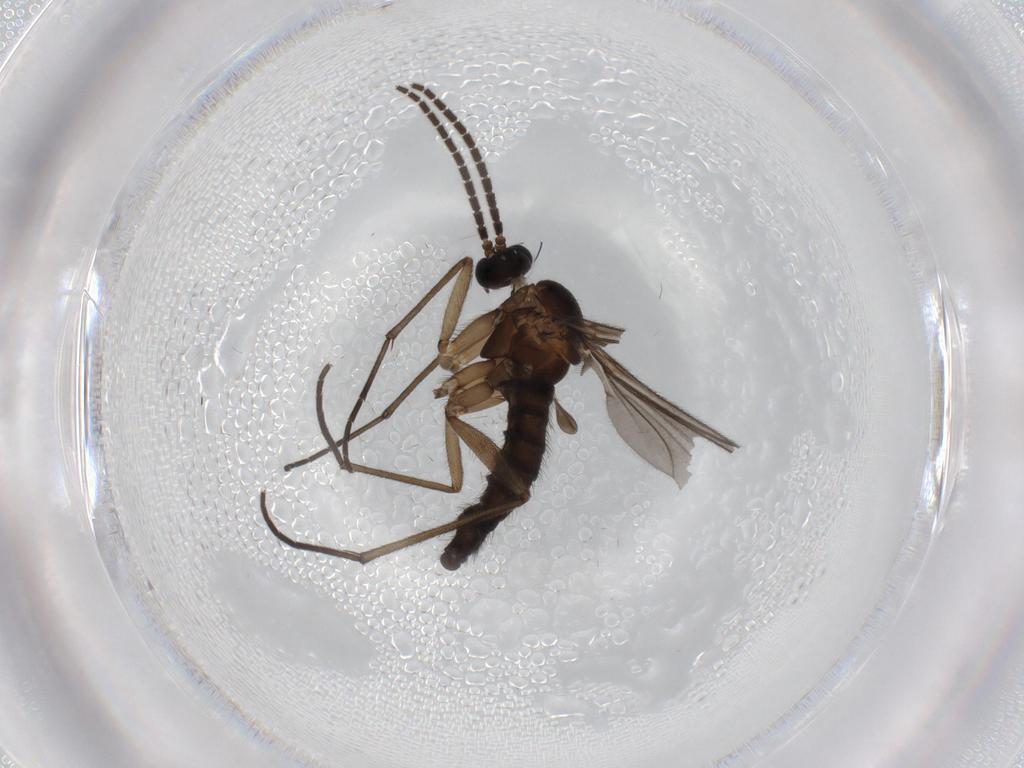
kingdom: Animalia
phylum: Arthropoda
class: Insecta
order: Diptera
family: Sciaridae
